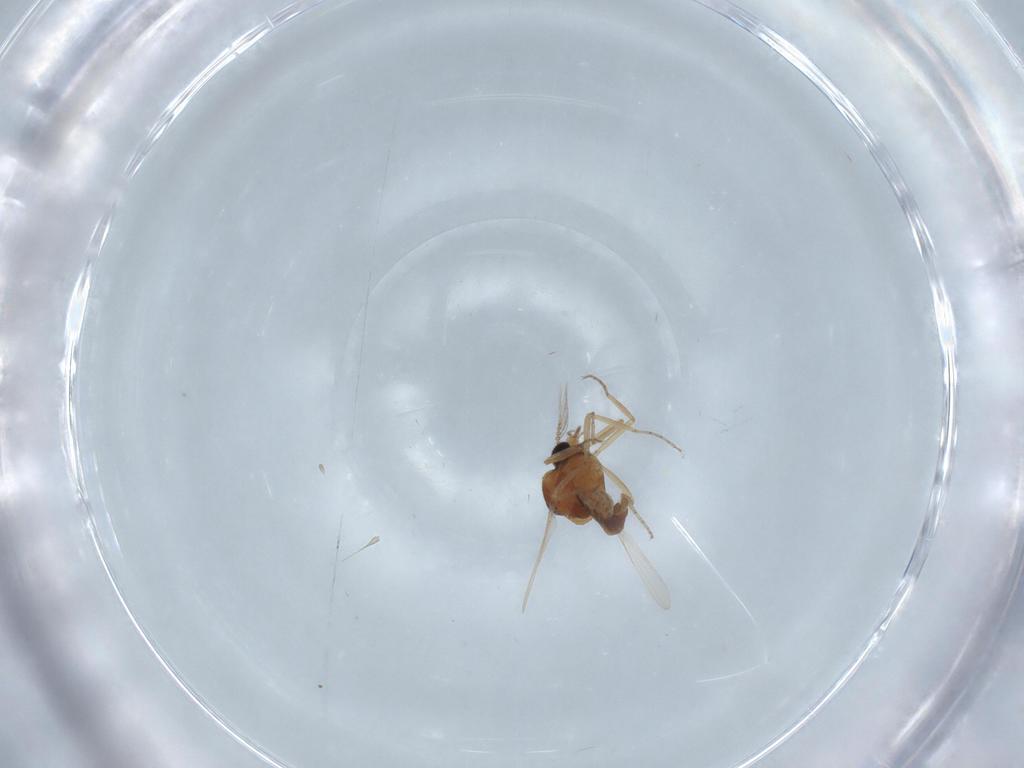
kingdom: Animalia
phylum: Arthropoda
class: Insecta
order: Diptera
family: Ceratopogonidae
